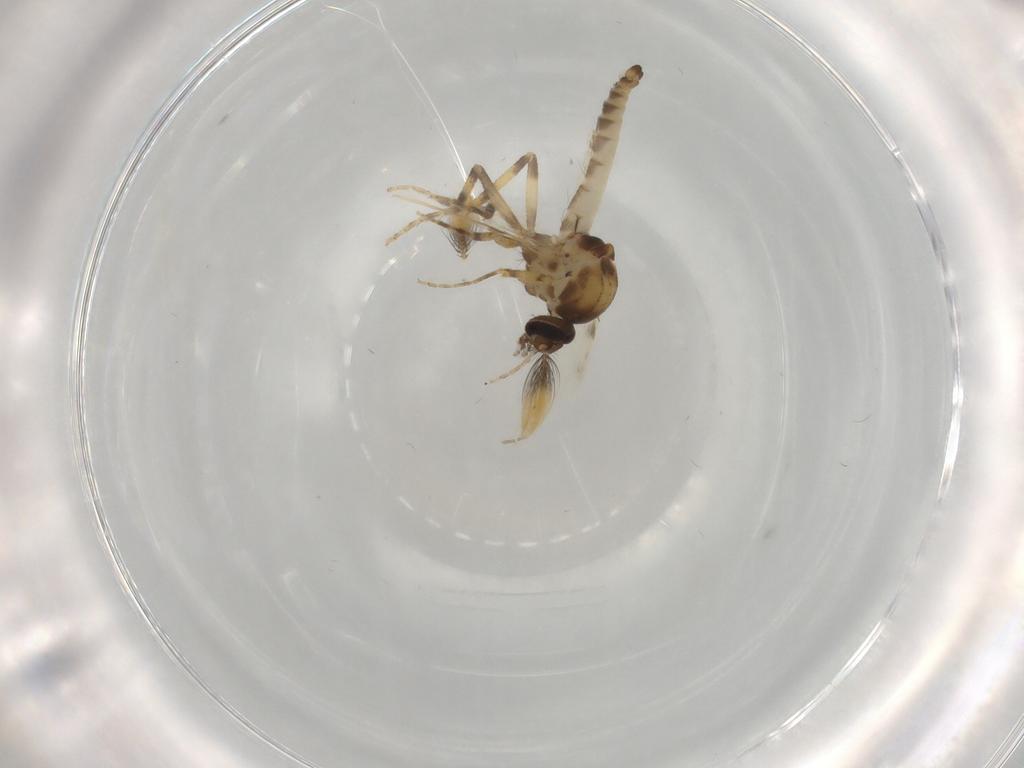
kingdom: Animalia
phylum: Arthropoda
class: Insecta
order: Diptera
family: Ceratopogonidae
